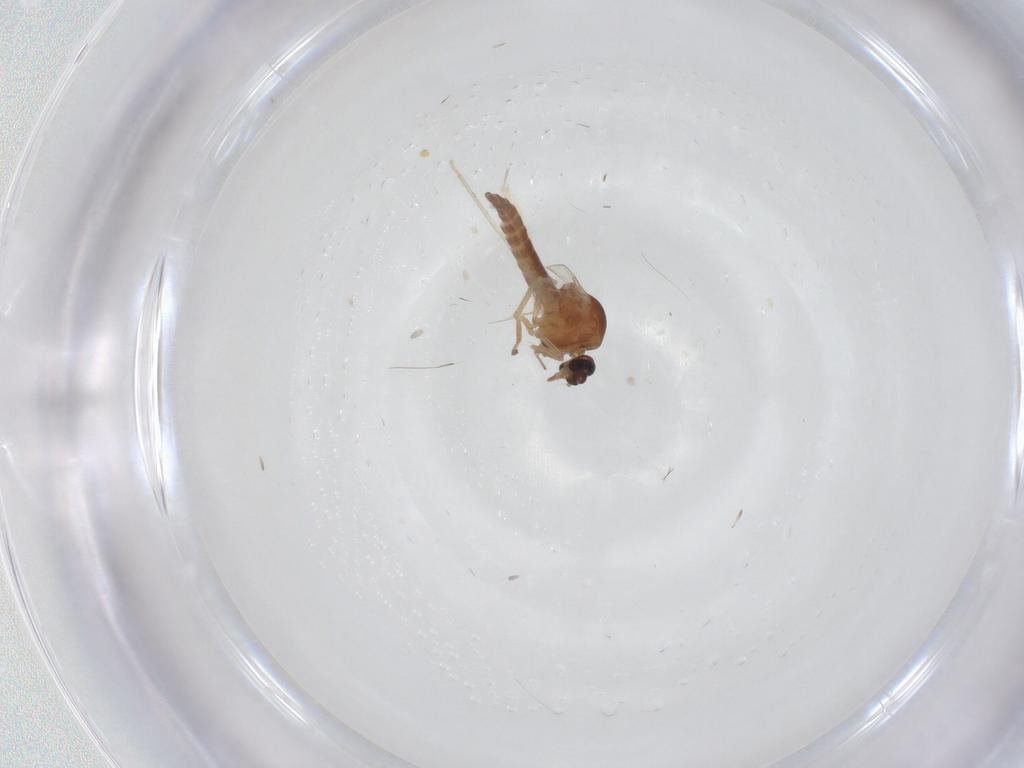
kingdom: Animalia
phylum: Arthropoda
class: Insecta
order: Diptera
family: Ceratopogonidae
